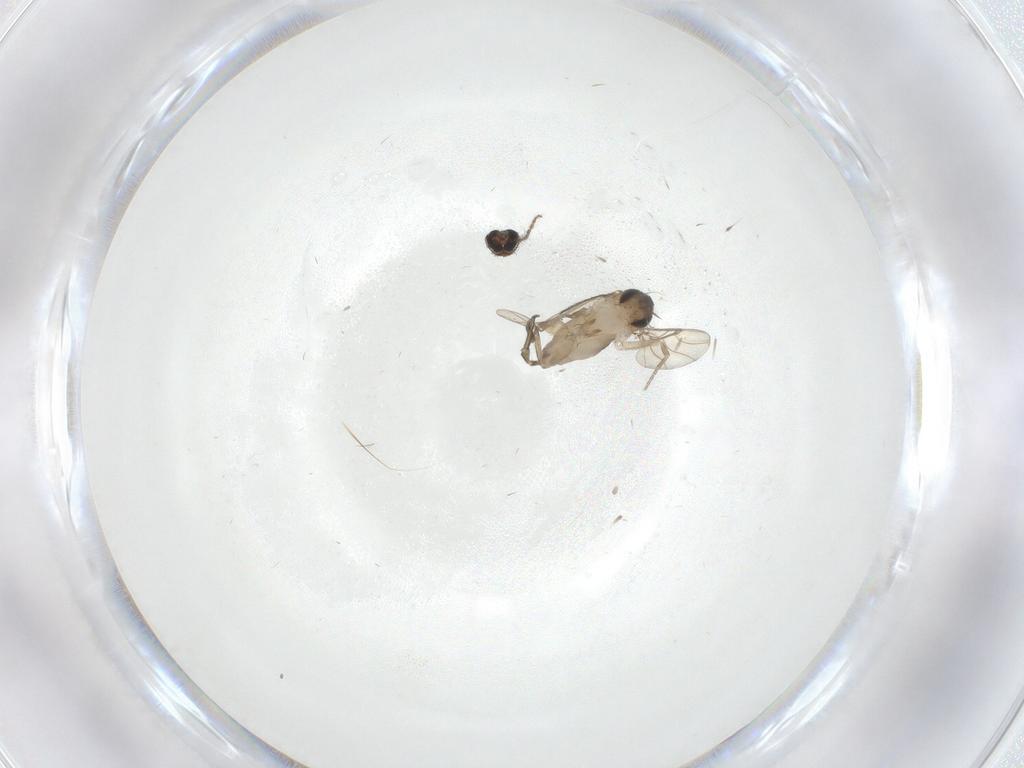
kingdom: Animalia
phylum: Arthropoda
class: Insecta
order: Diptera
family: Phoridae
